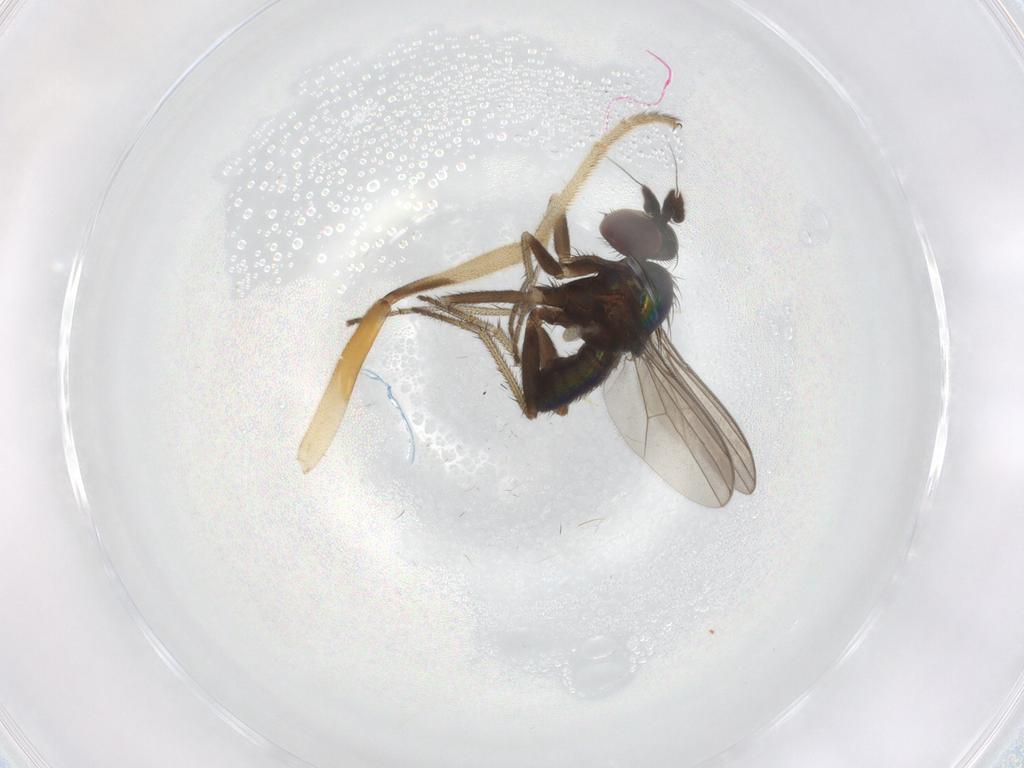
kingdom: Animalia
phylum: Arthropoda
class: Insecta
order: Diptera
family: Stratiomyidae
